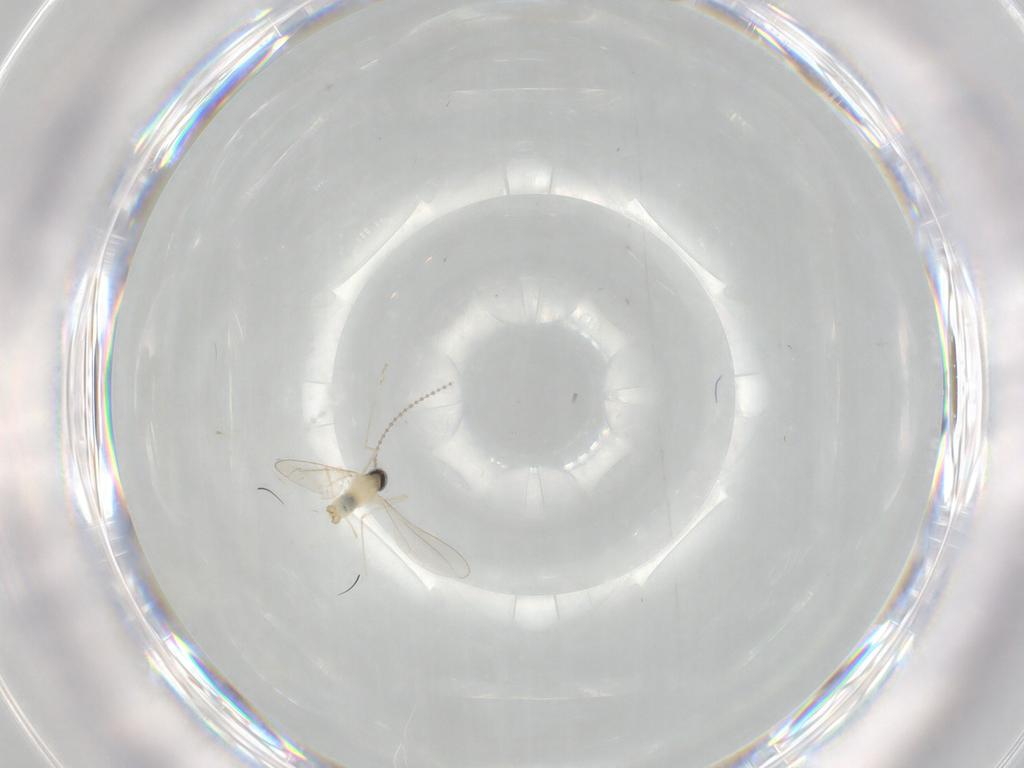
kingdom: Animalia
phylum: Arthropoda
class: Insecta
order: Diptera
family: Cecidomyiidae
